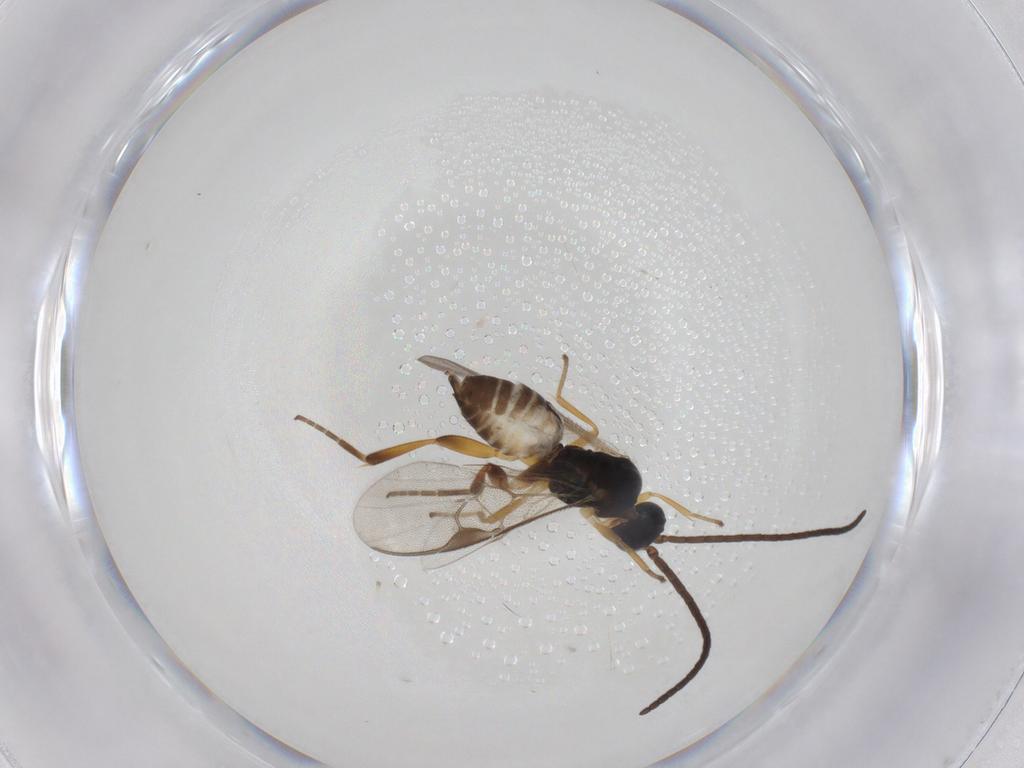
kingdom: Animalia
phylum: Arthropoda
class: Insecta
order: Hymenoptera
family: Braconidae
